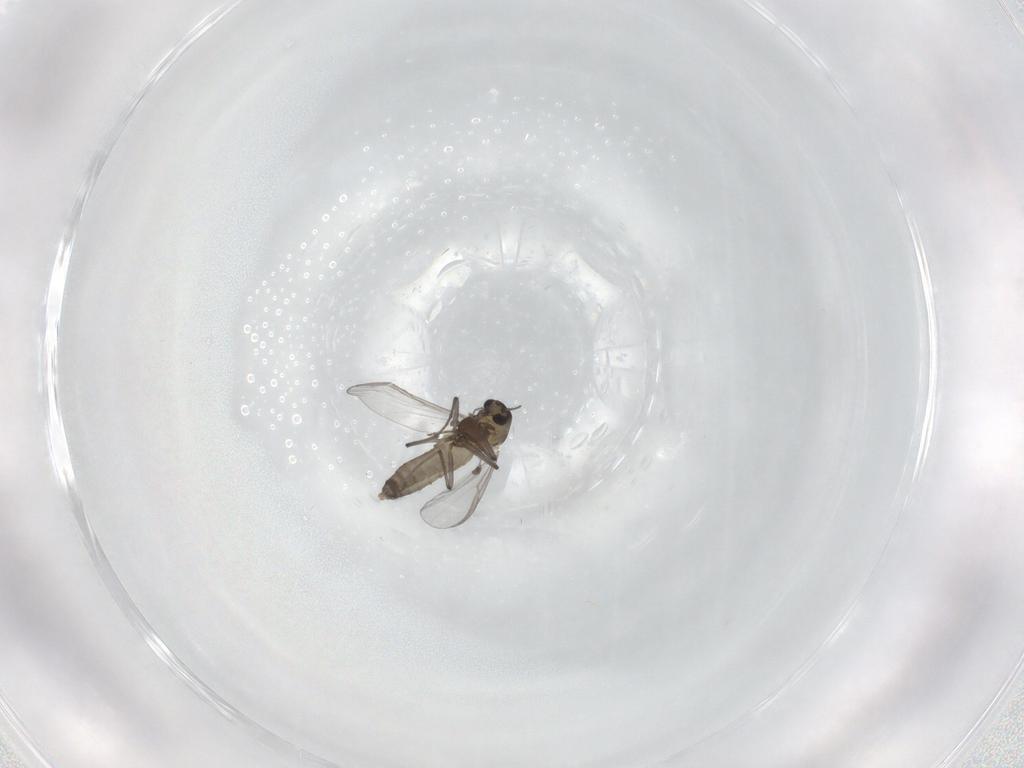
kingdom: Animalia
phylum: Arthropoda
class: Insecta
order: Diptera
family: Chironomidae
